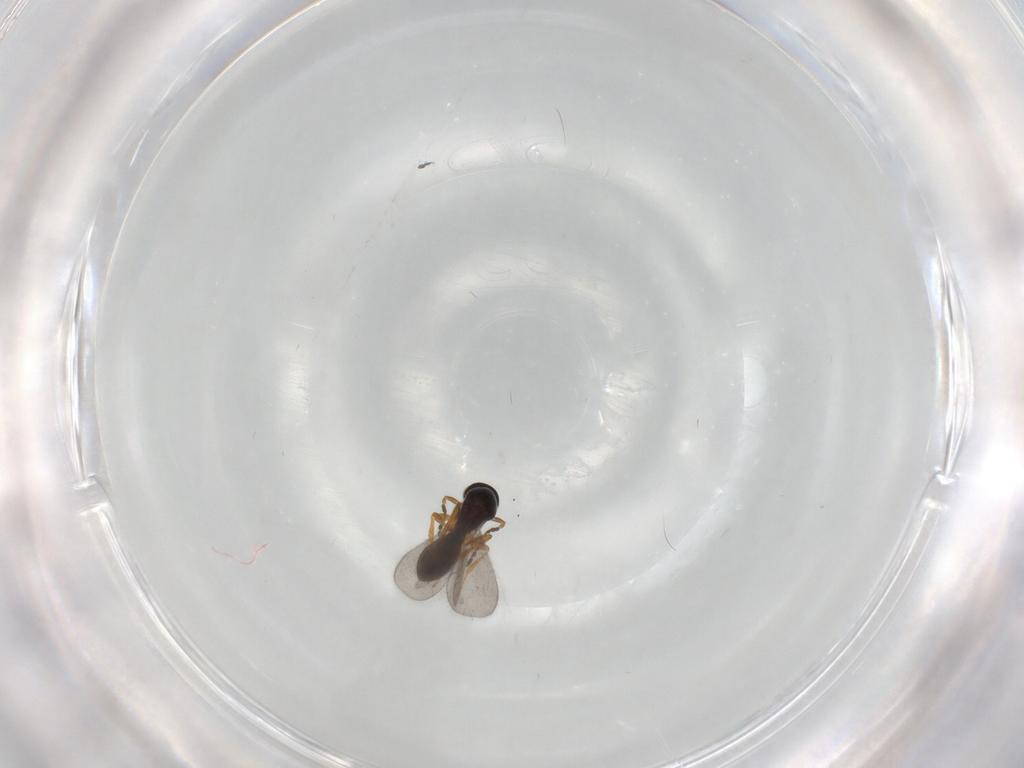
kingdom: Animalia
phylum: Arthropoda
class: Insecta
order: Hymenoptera
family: Platygastridae
